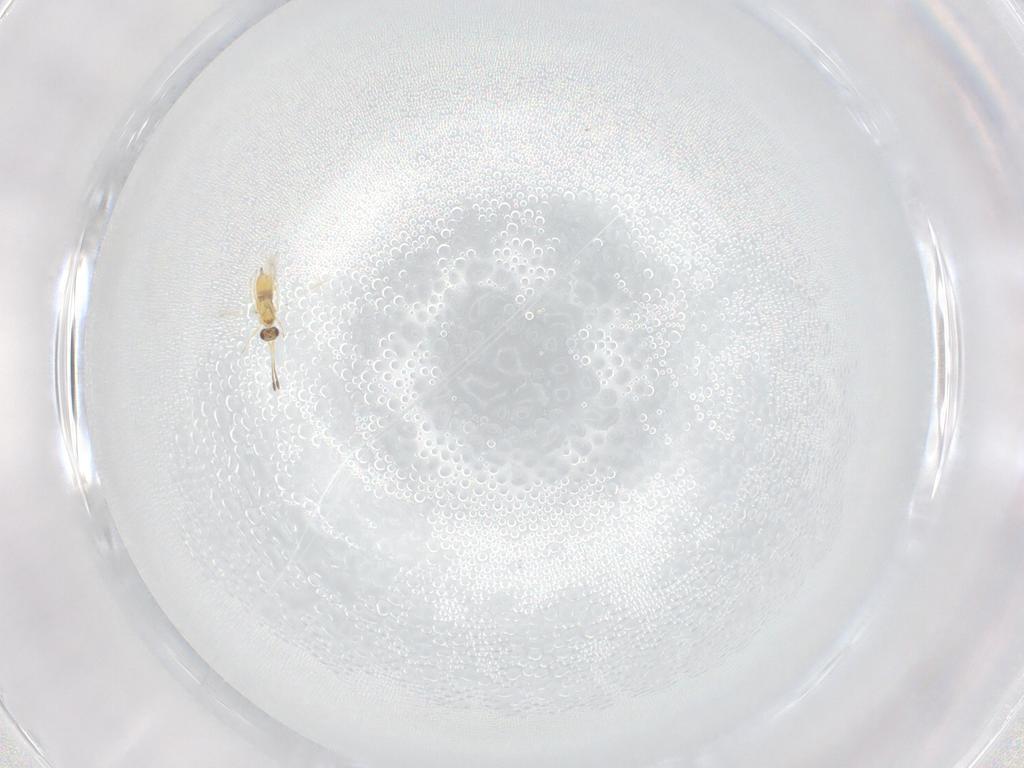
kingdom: Animalia
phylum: Arthropoda
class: Insecta
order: Hymenoptera
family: Mymaridae
